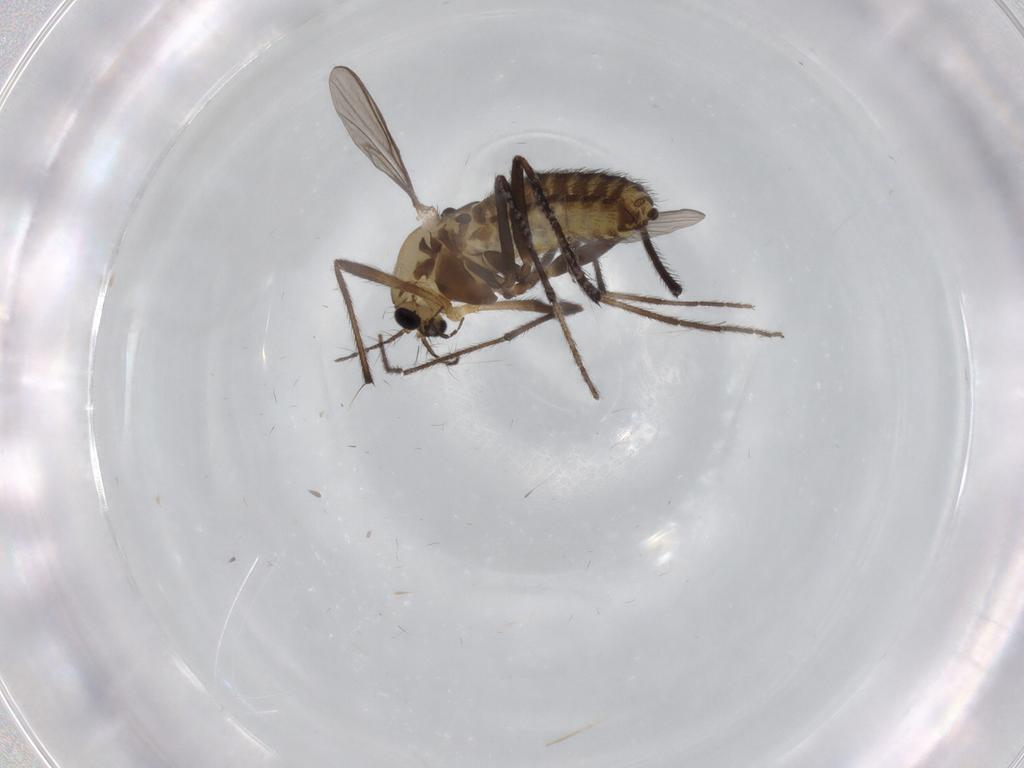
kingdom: Animalia
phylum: Arthropoda
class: Insecta
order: Diptera
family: Chironomidae
